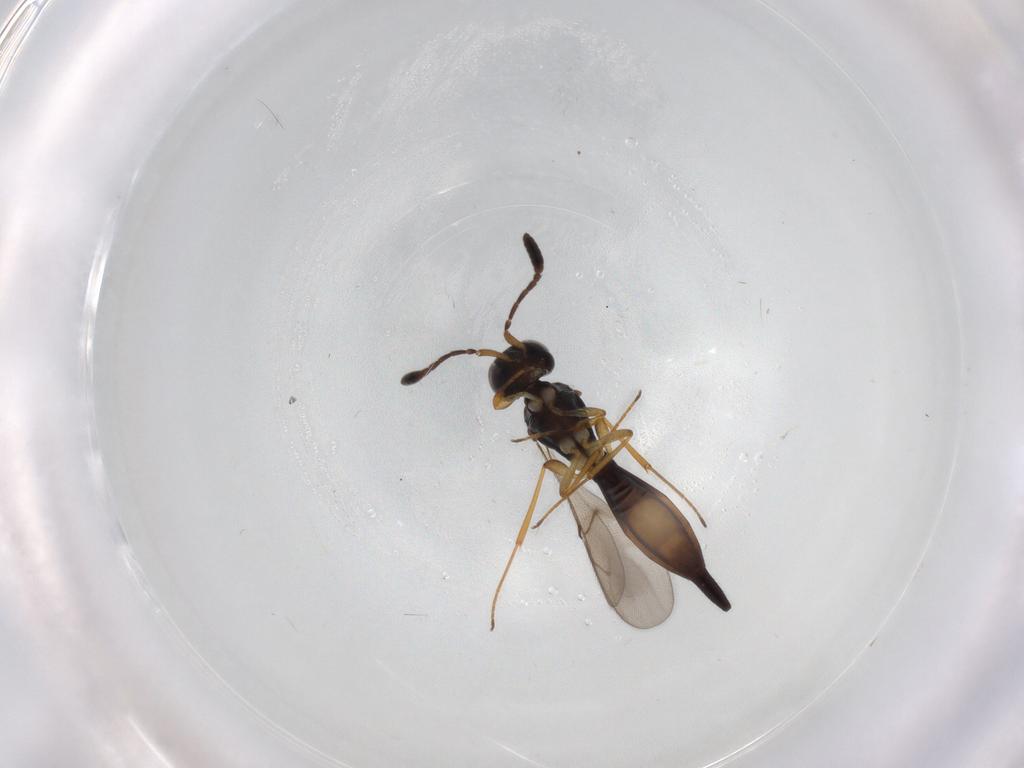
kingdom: Animalia
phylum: Arthropoda
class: Insecta
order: Hymenoptera
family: Scelionidae
